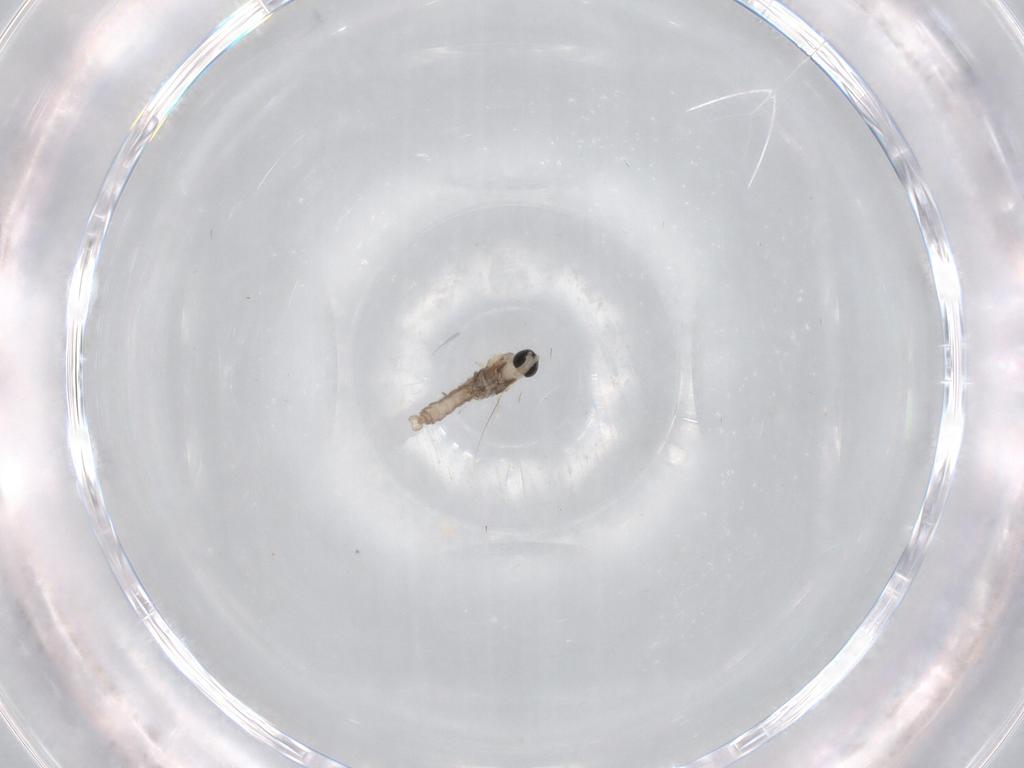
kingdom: Animalia
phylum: Arthropoda
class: Insecta
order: Diptera
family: Cecidomyiidae
